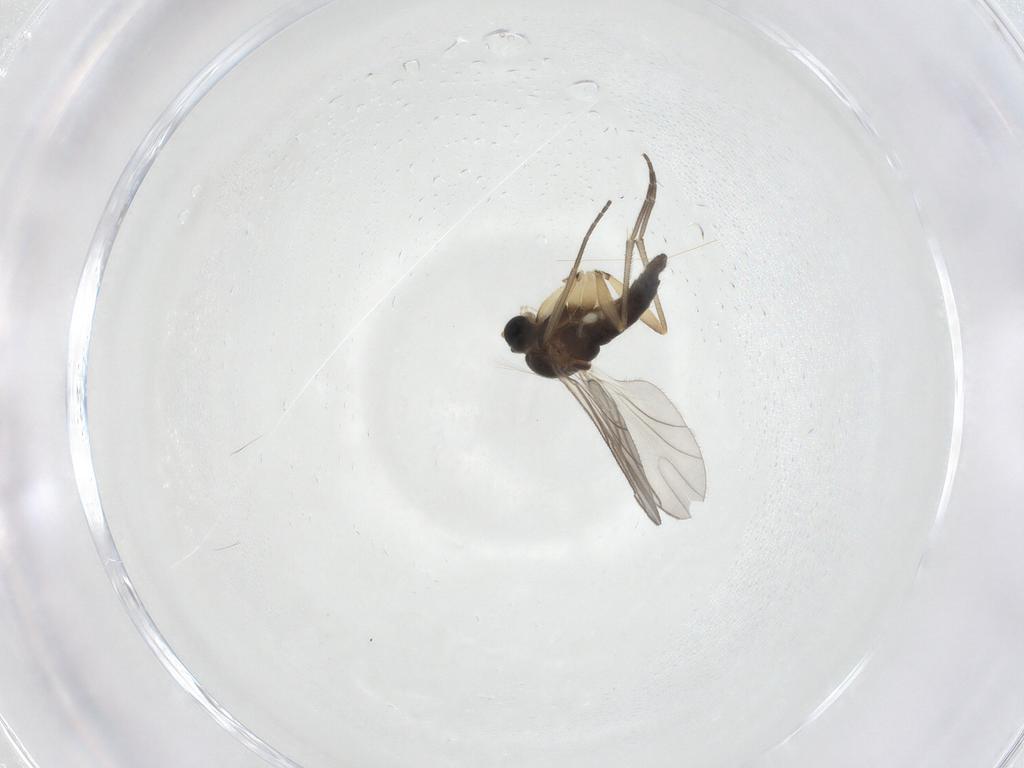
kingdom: Animalia
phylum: Arthropoda
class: Insecta
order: Diptera
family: Sciaridae
